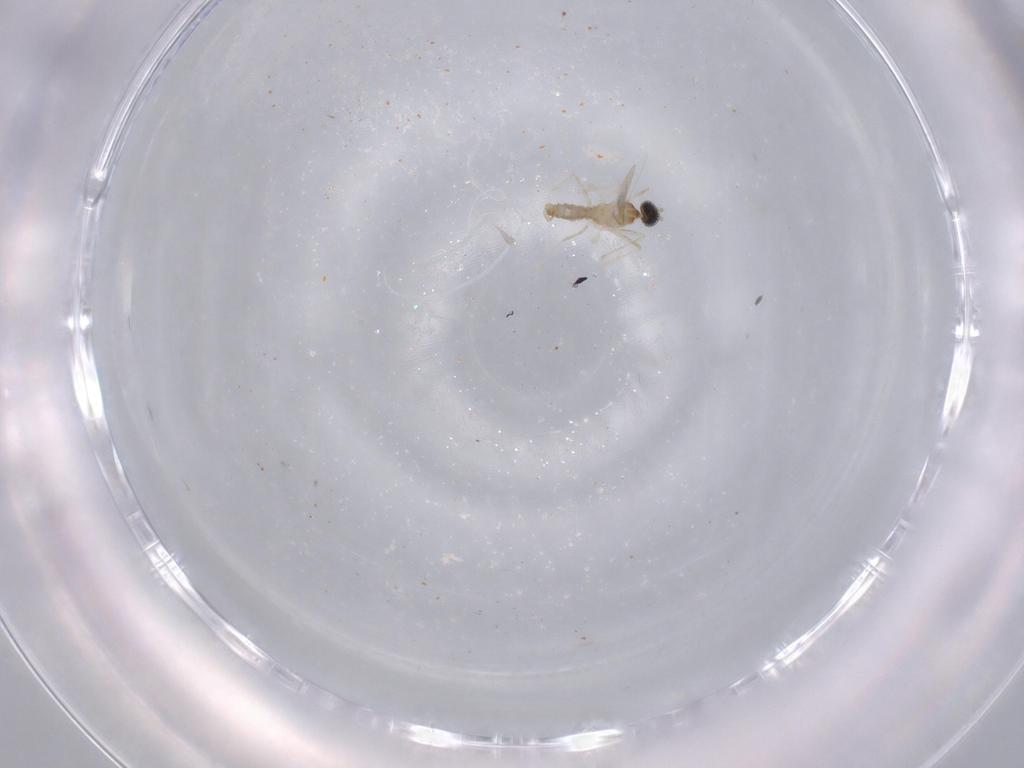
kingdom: Animalia
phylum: Arthropoda
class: Insecta
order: Diptera
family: Cecidomyiidae
